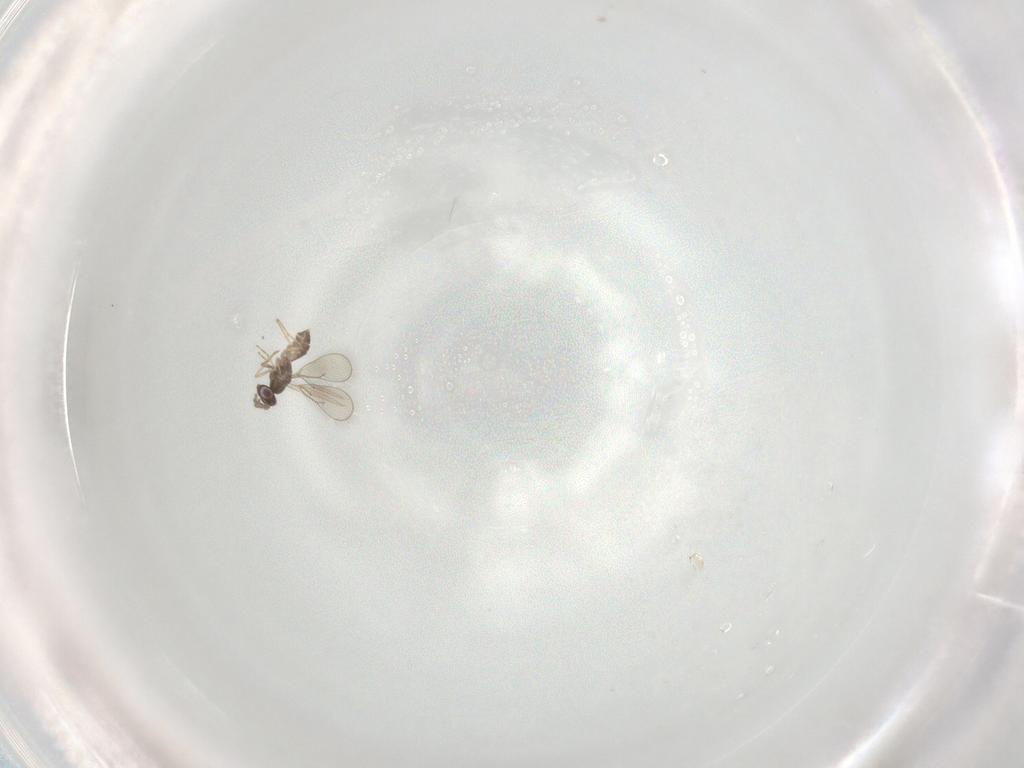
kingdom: Animalia
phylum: Arthropoda
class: Insecta
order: Hymenoptera
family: Eulophidae
